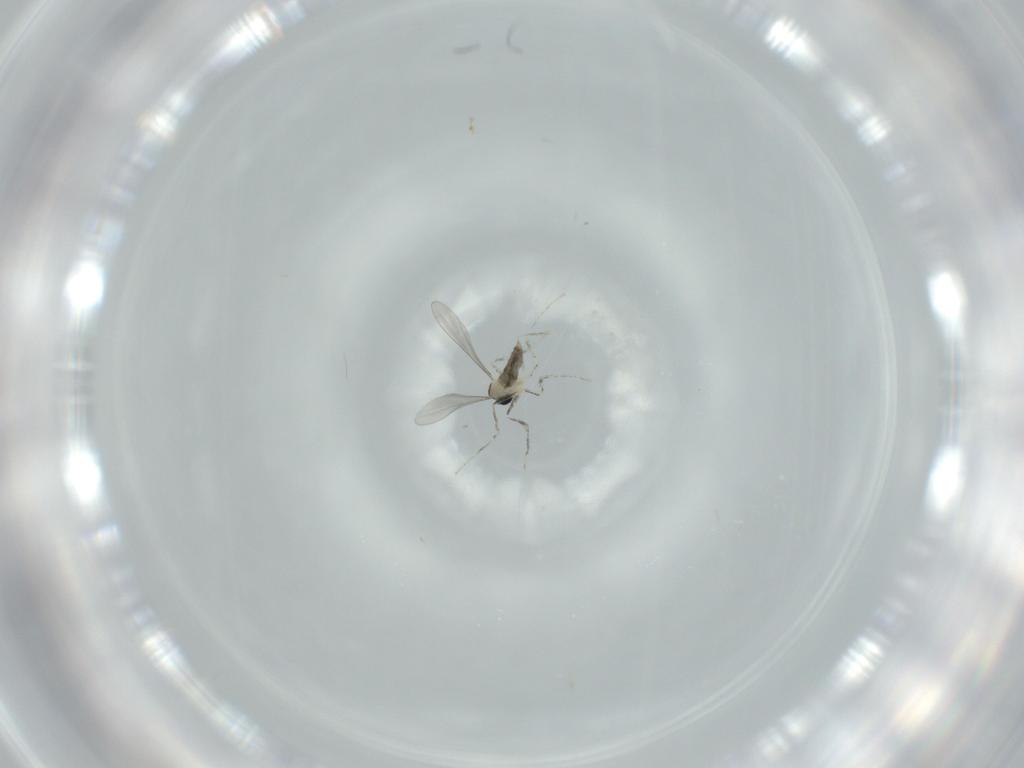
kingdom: Animalia
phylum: Arthropoda
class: Insecta
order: Diptera
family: Cecidomyiidae
